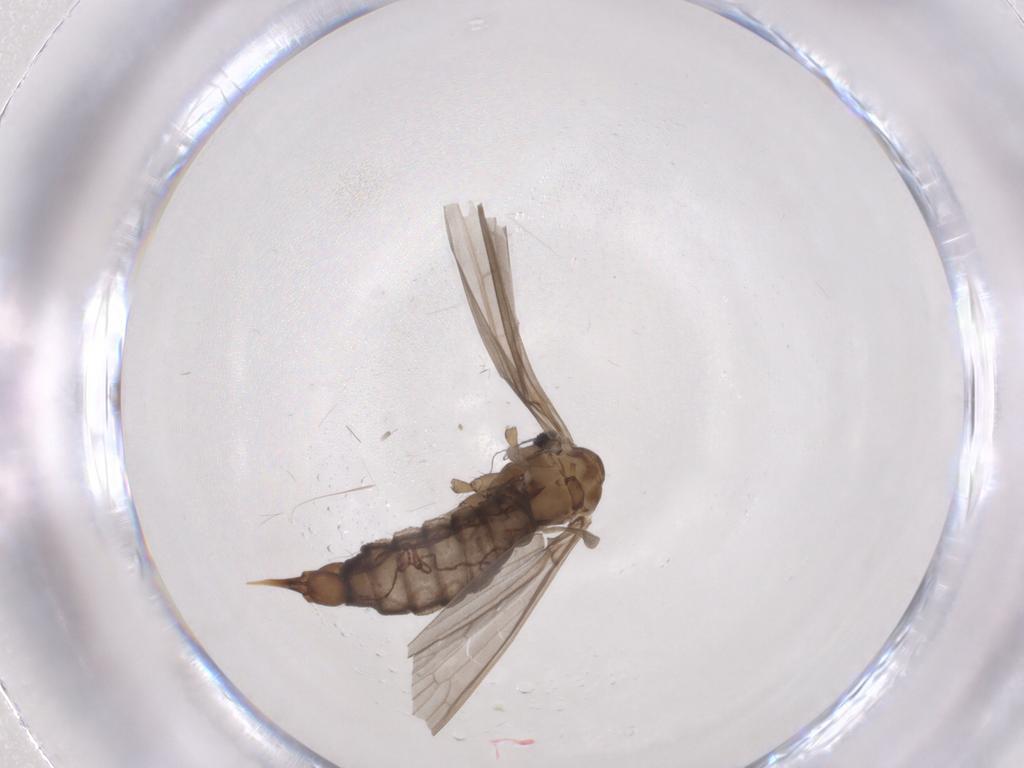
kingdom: Animalia
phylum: Arthropoda
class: Insecta
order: Diptera
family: Limoniidae
